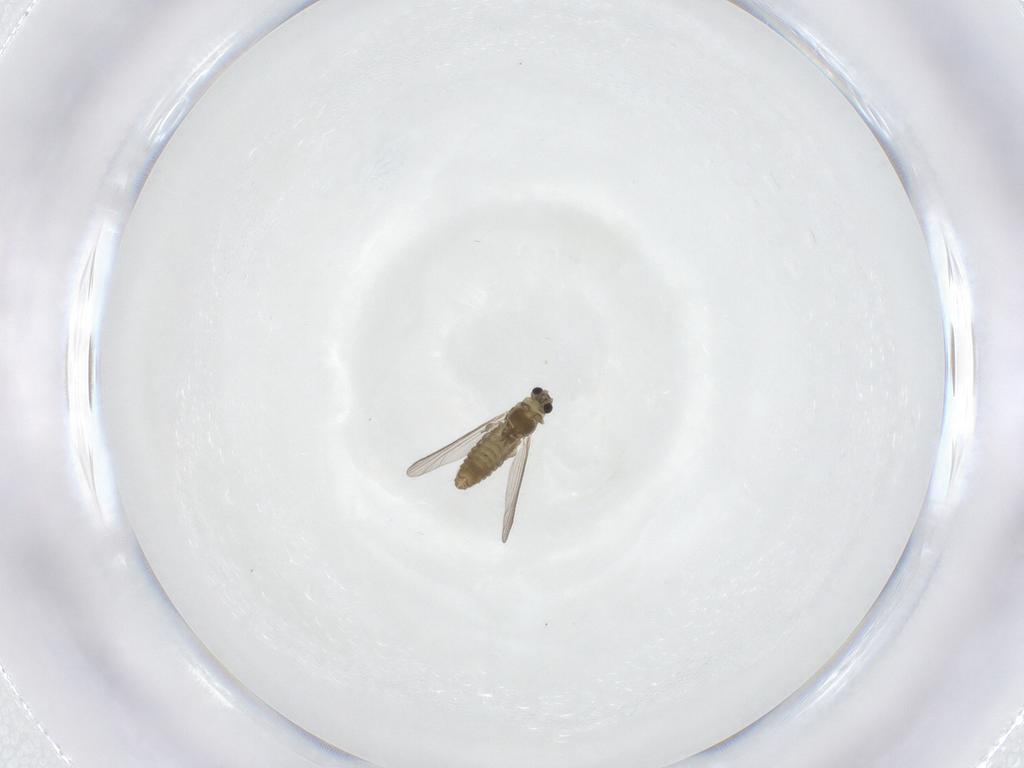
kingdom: Animalia
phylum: Arthropoda
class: Insecta
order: Diptera
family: Chironomidae
